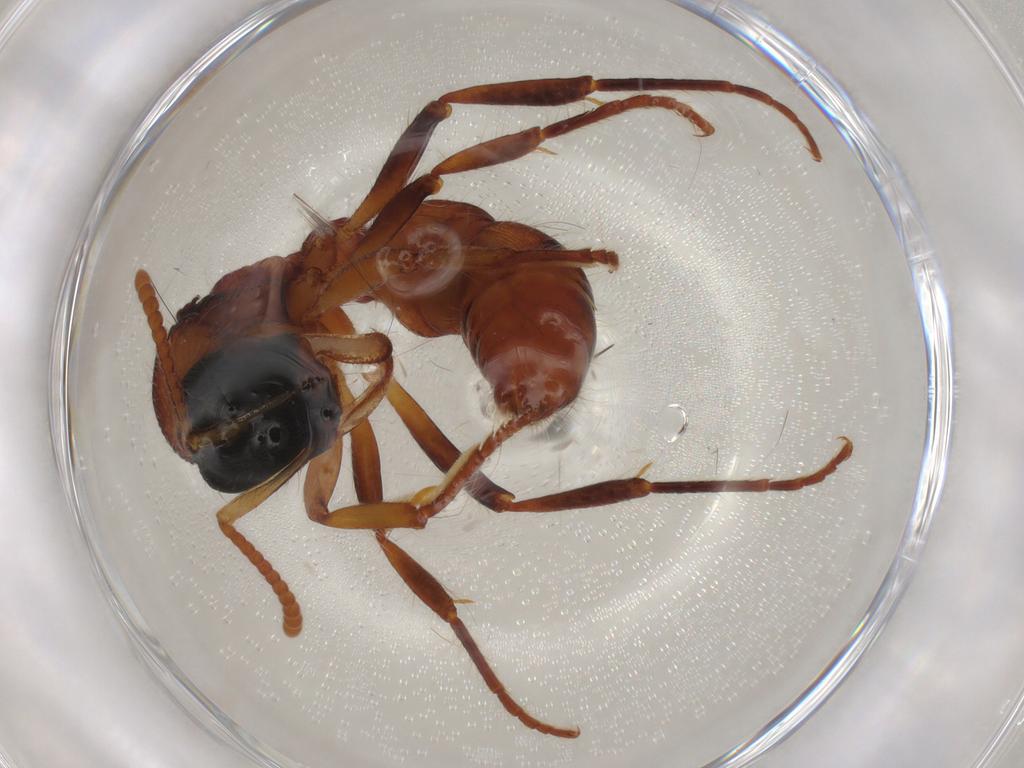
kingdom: Animalia
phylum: Arthropoda
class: Insecta
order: Hymenoptera
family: Formicidae
